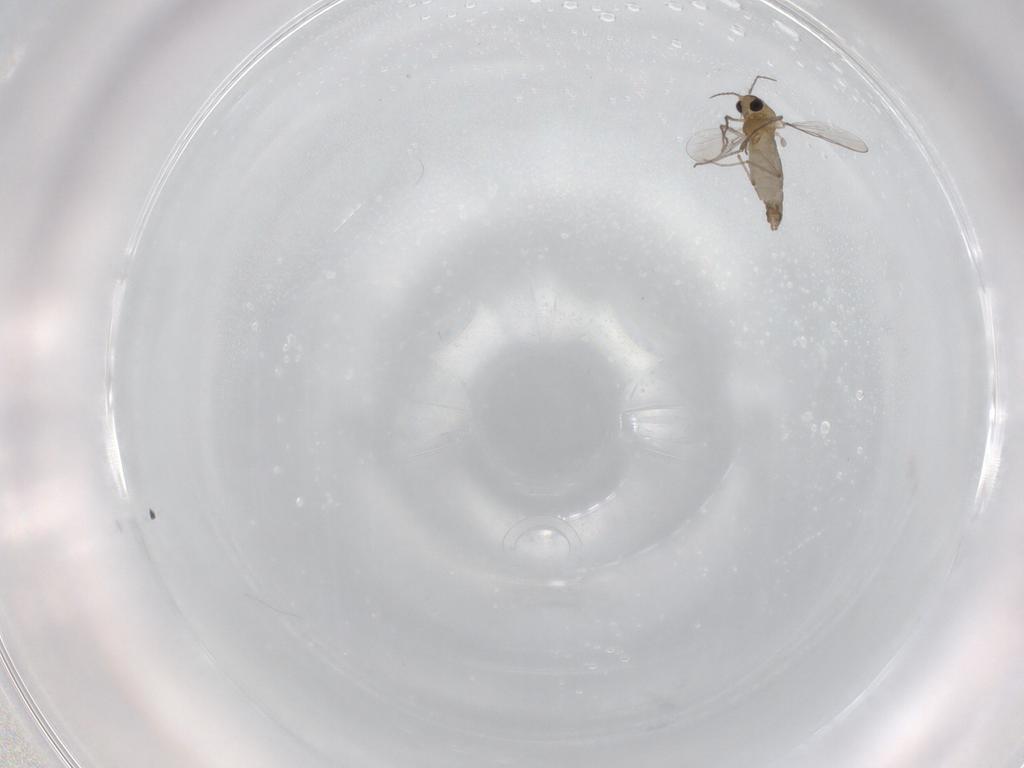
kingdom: Animalia
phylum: Arthropoda
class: Insecta
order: Diptera
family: Chironomidae
